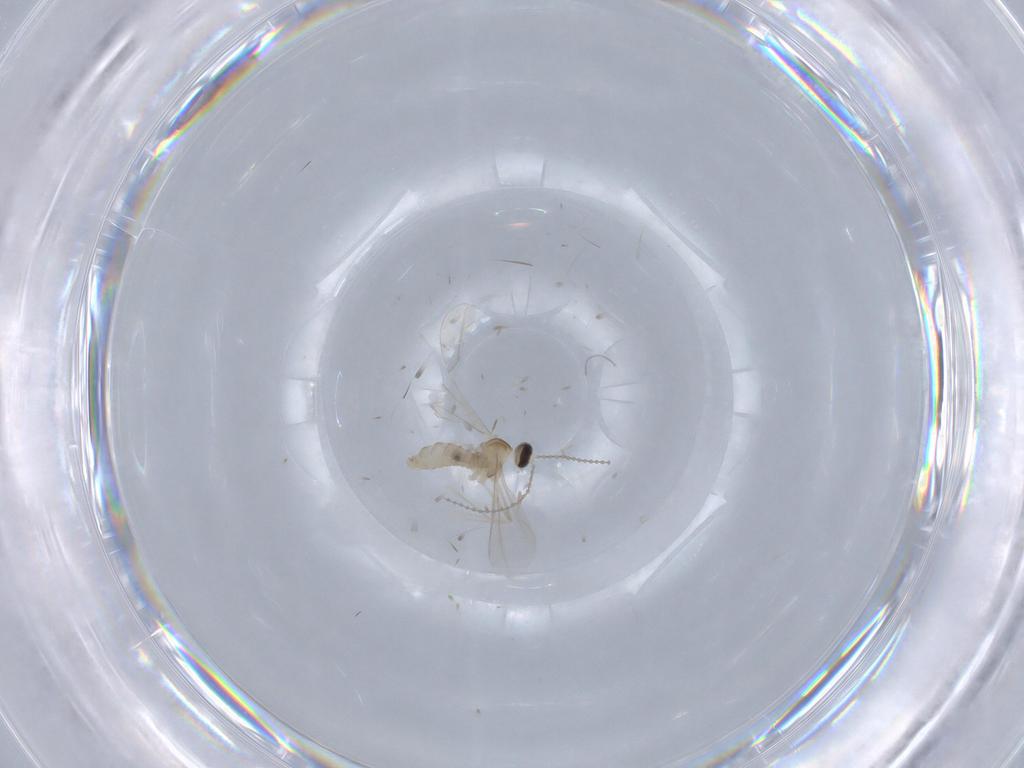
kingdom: Animalia
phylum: Arthropoda
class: Insecta
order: Diptera
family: Cecidomyiidae
